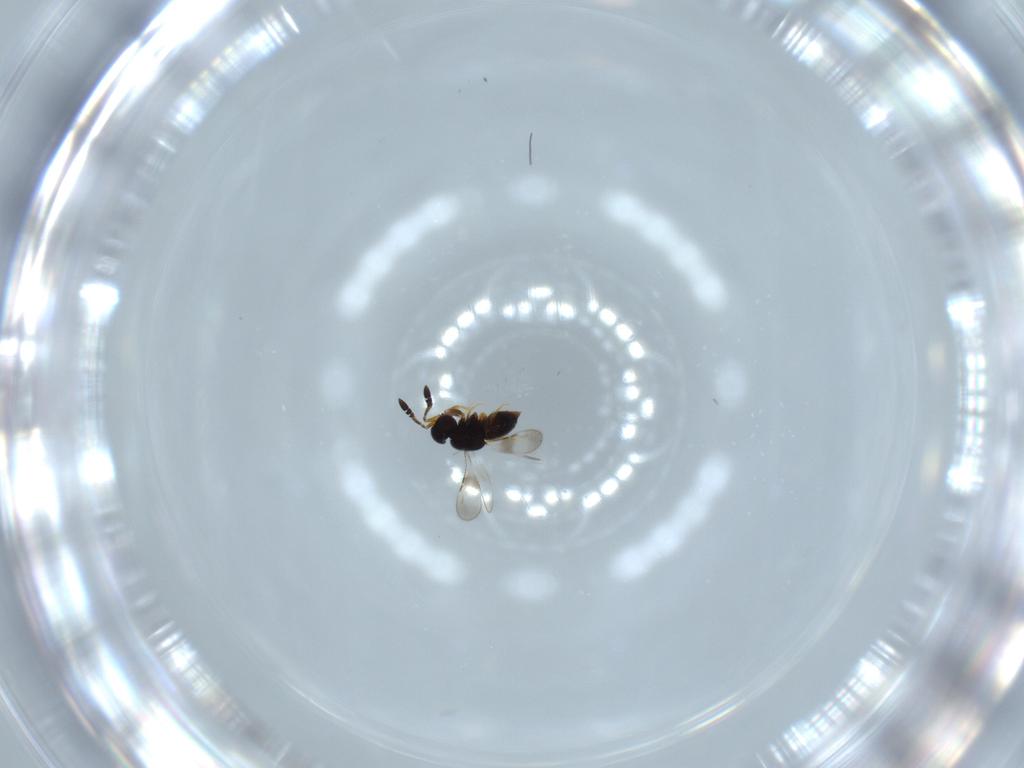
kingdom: Animalia
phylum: Arthropoda
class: Insecta
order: Hymenoptera
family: Ceraphronidae
